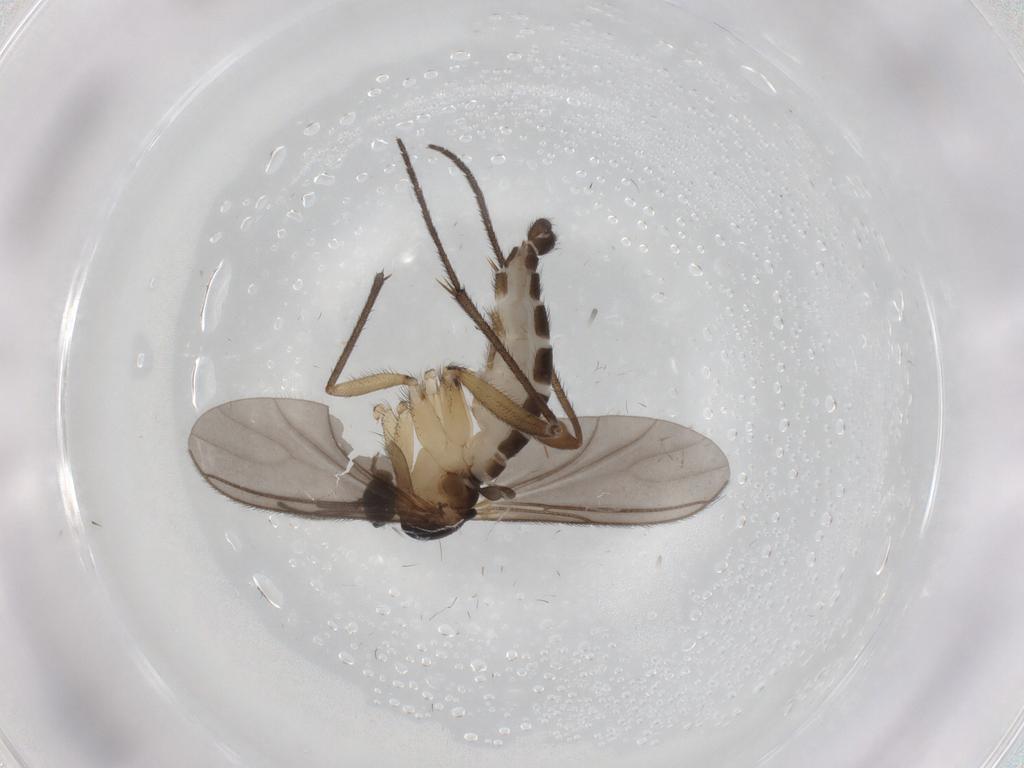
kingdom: Animalia
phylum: Arthropoda
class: Insecta
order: Diptera
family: Sciaridae
